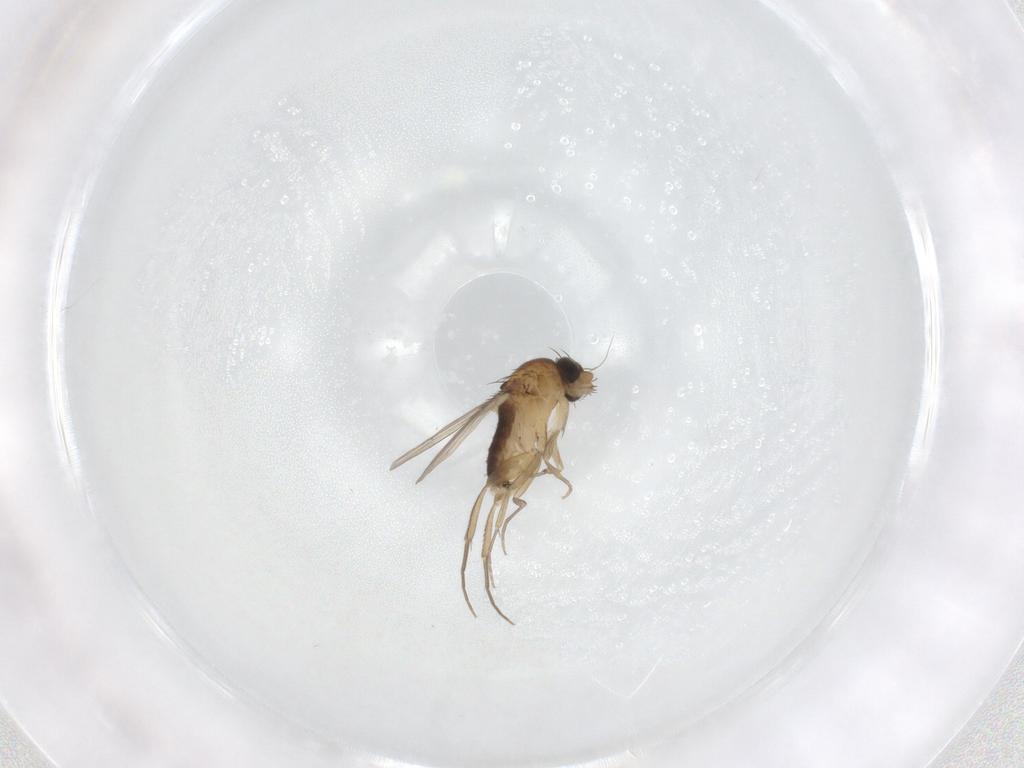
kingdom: Animalia
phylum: Arthropoda
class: Insecta
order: Diptera
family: Phoridae
